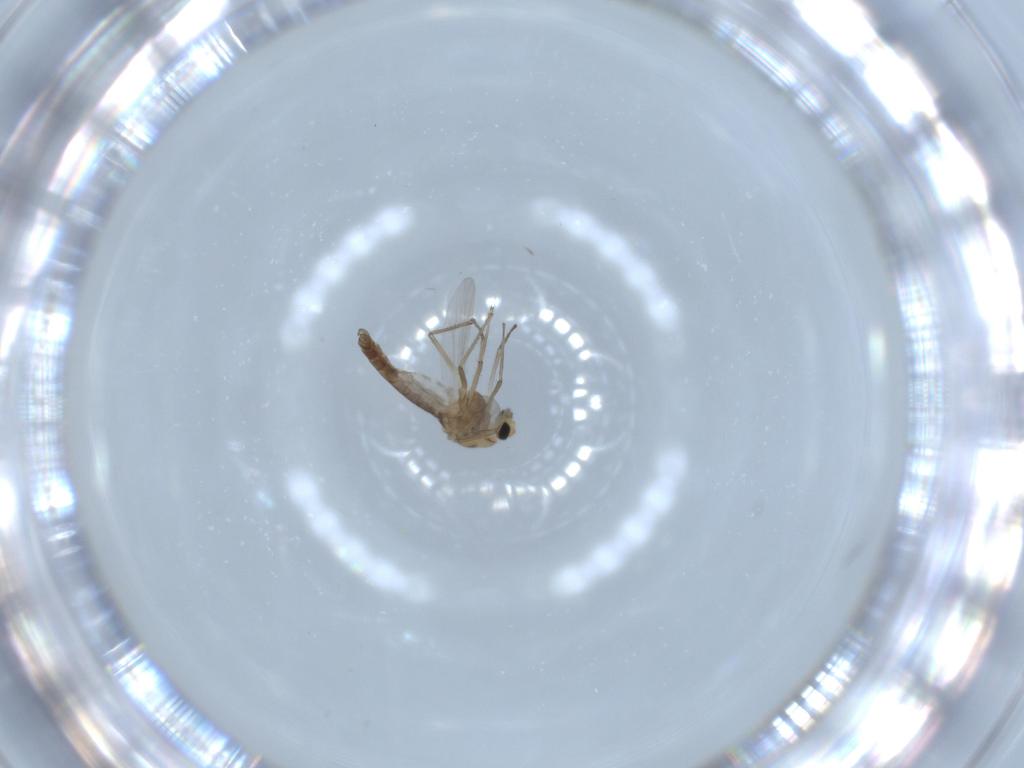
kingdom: Animalia
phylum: Arthropoda
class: Insecta
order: Diptera
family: Chironomidae
